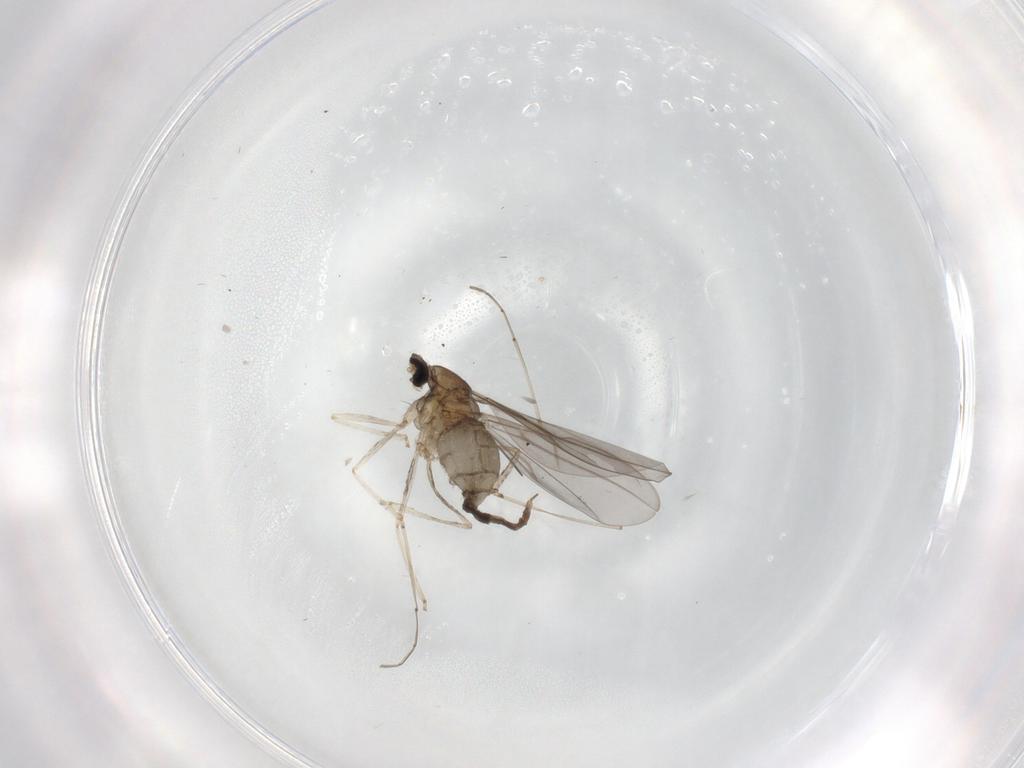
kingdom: Animalia
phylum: Arthropoda
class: Insecta
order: Diptera
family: Cecidomyiidae
